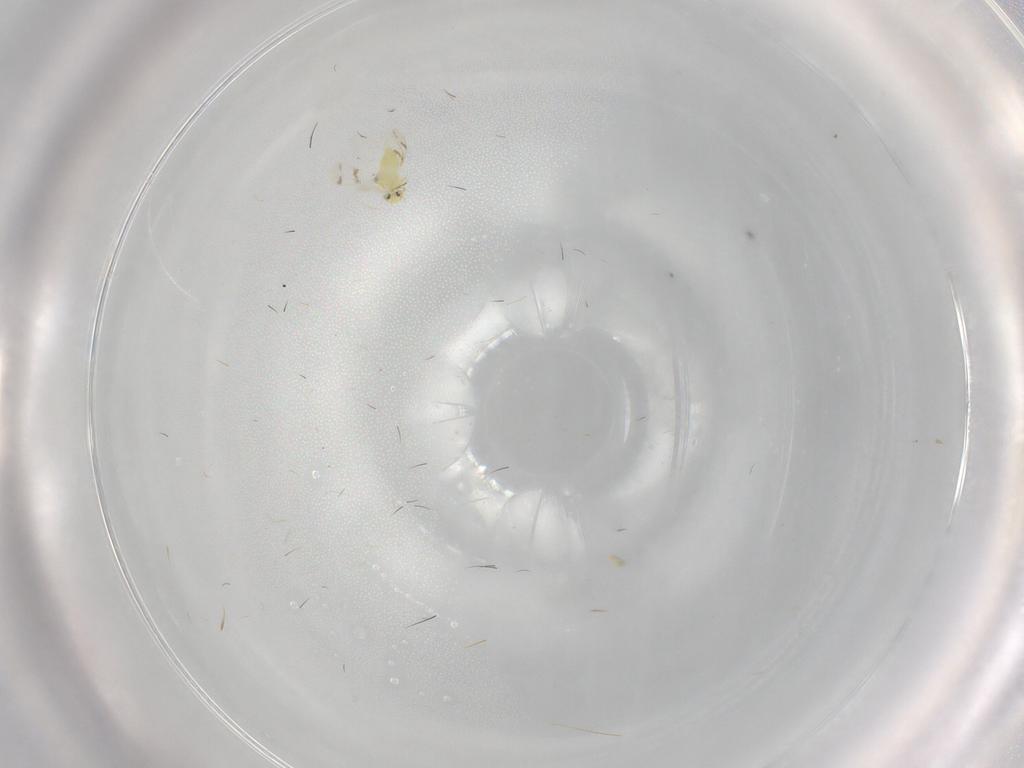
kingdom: Animalia
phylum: Arthropoda
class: Insecta
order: Hemiptera
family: Aleyrodidae
